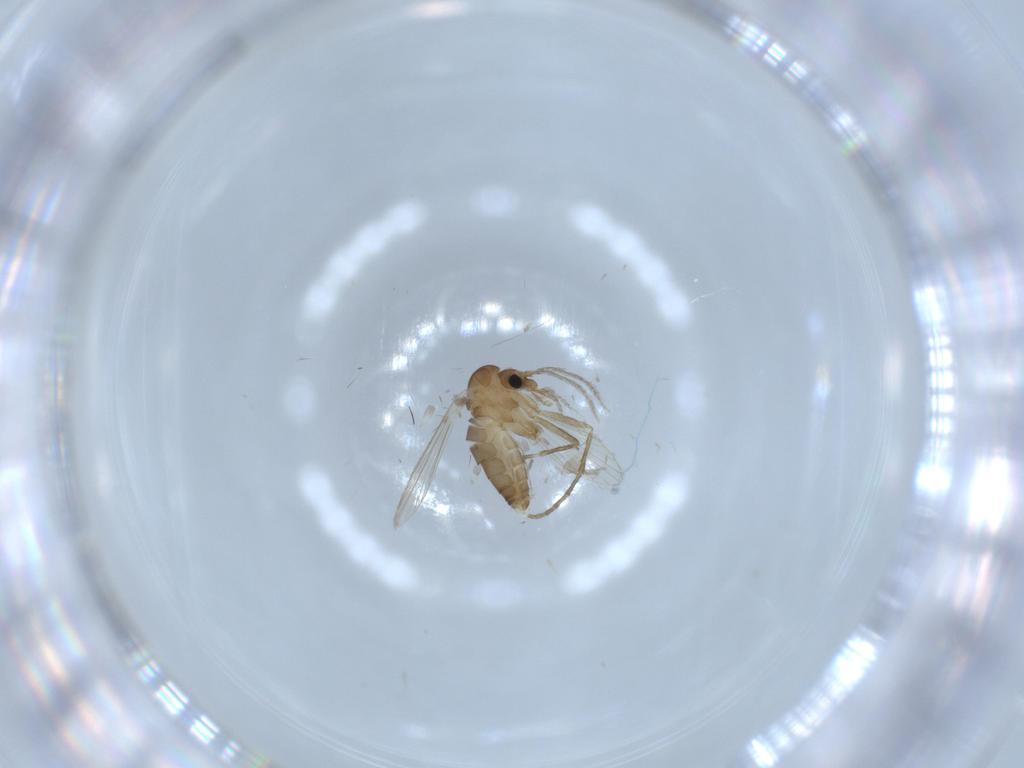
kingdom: Animalia
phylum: Arthropoda
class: Insecta
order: Diptera
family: Psychodidae
